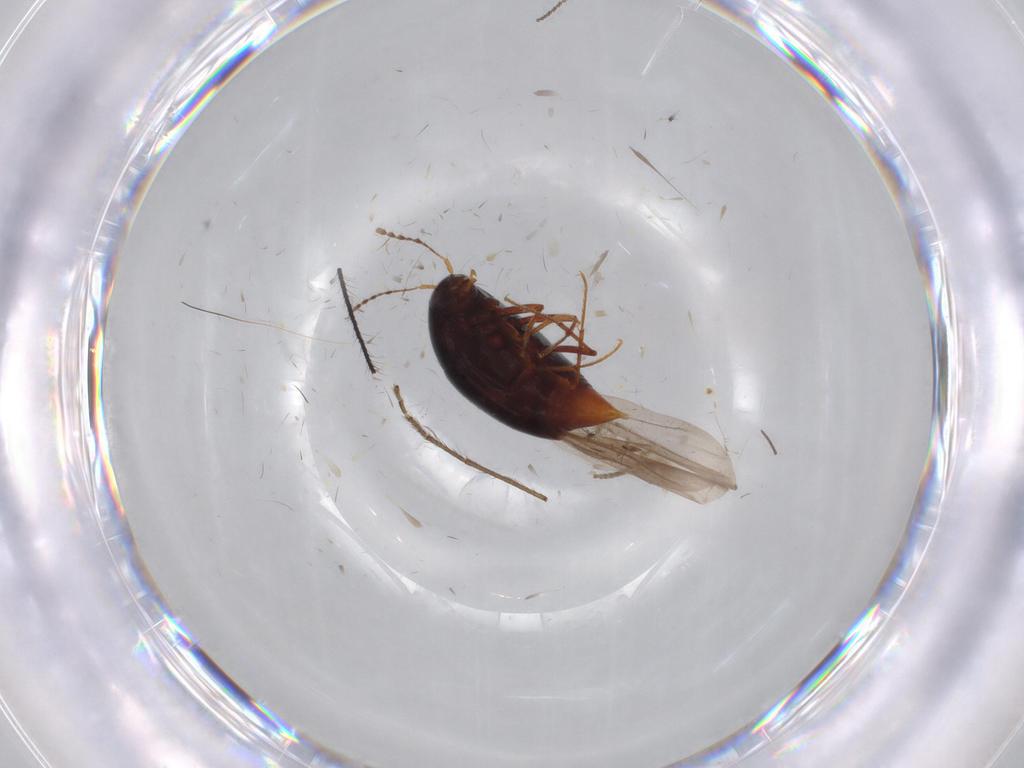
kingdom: Animalia
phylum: Arthropoda
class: Insecta
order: Coleoptera
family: Staphylinidae
